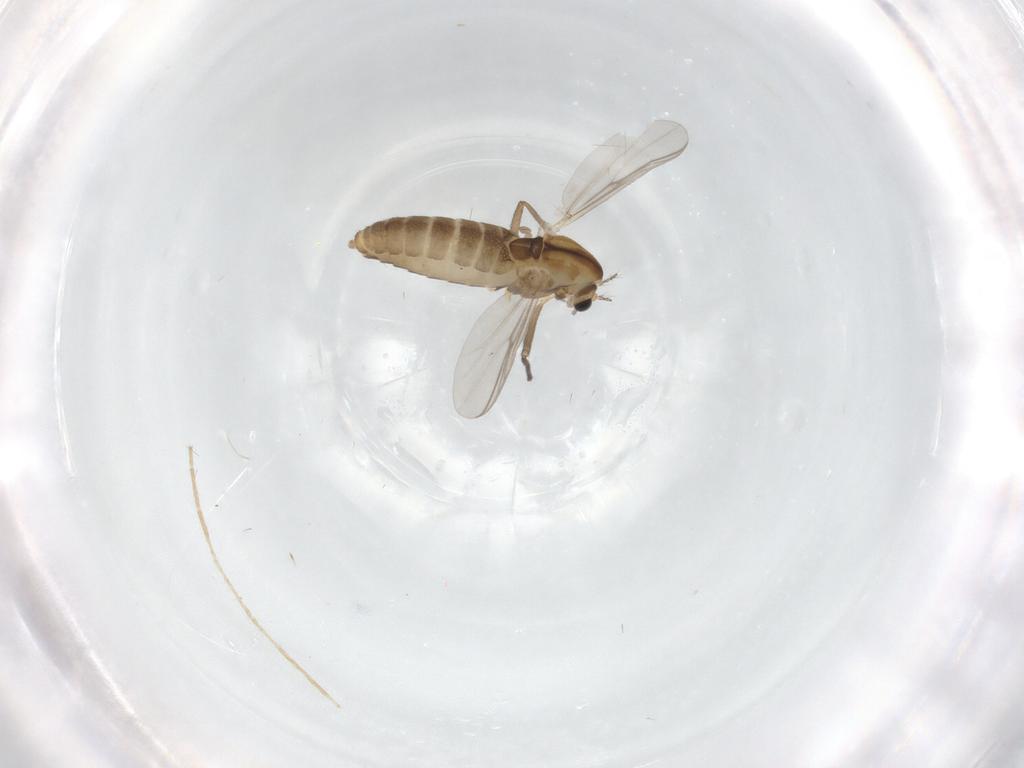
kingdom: Animalia
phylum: Arthropoda
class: Insecta
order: Diptera
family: Chironomidae
